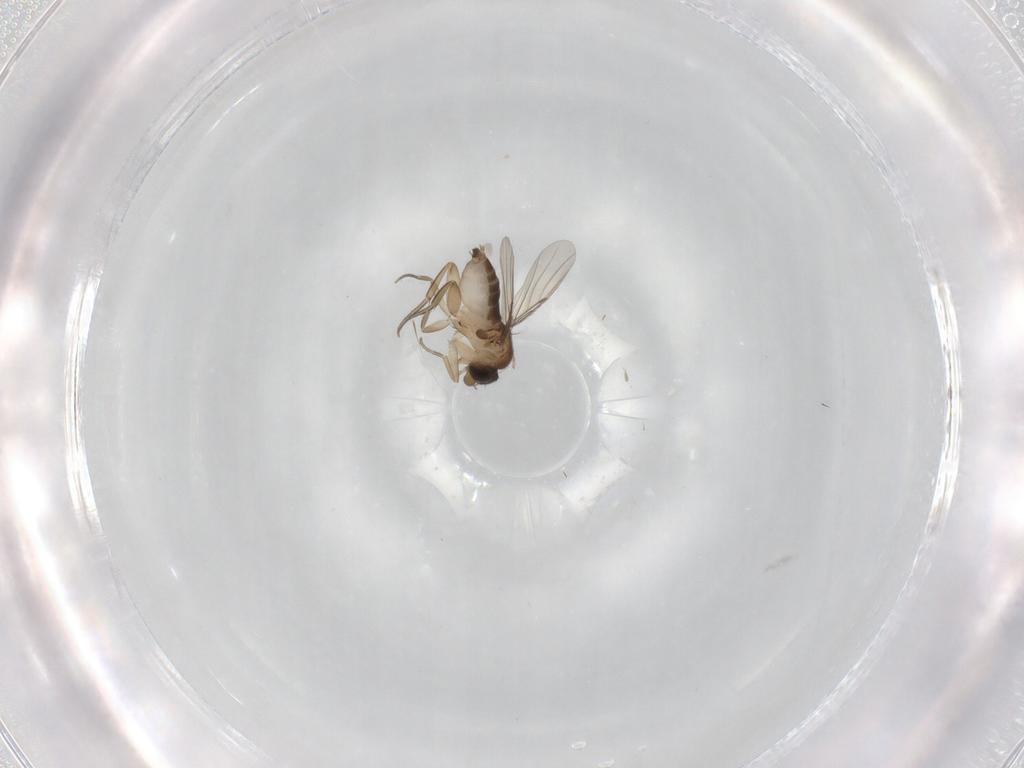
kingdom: Animalia
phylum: Arthropoda
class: Insecta
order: Diptera
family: Phoridae
